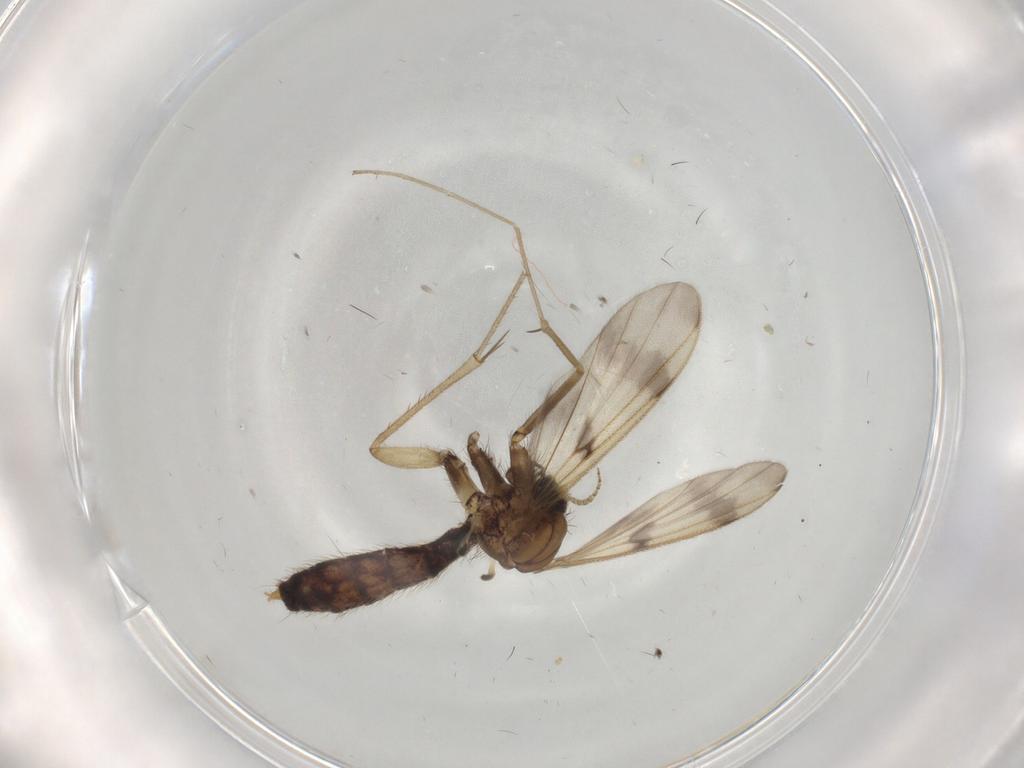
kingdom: Animalia
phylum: Arthropoda
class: Insecta
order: Diptera
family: Mycetophilidae
